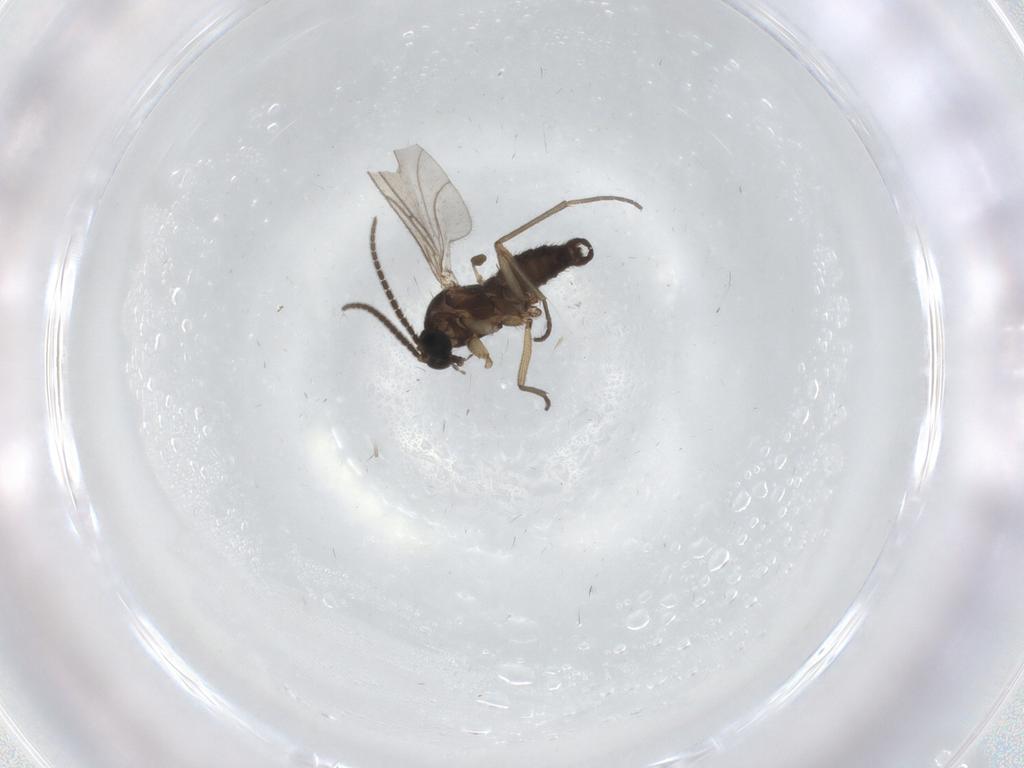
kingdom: Animalia
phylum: Arthropoda
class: Insecta
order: Diptera
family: Sciaridae
